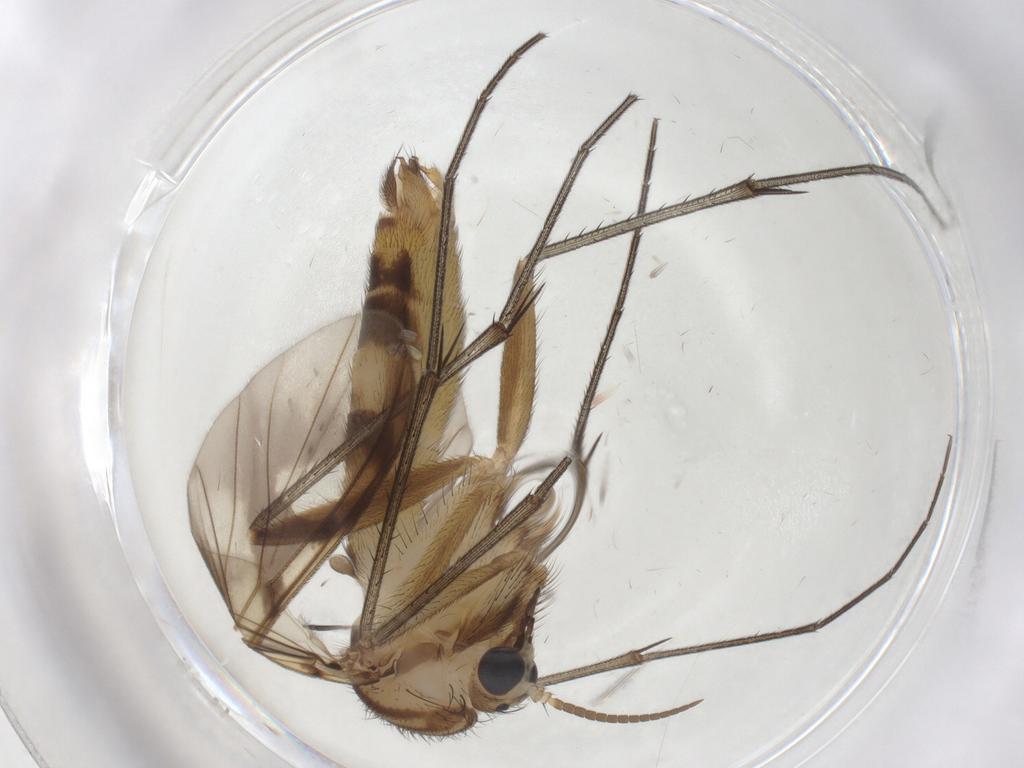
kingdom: Animalia
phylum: Arthropoda
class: Insecta
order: Diptera
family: Mycetophilidae
